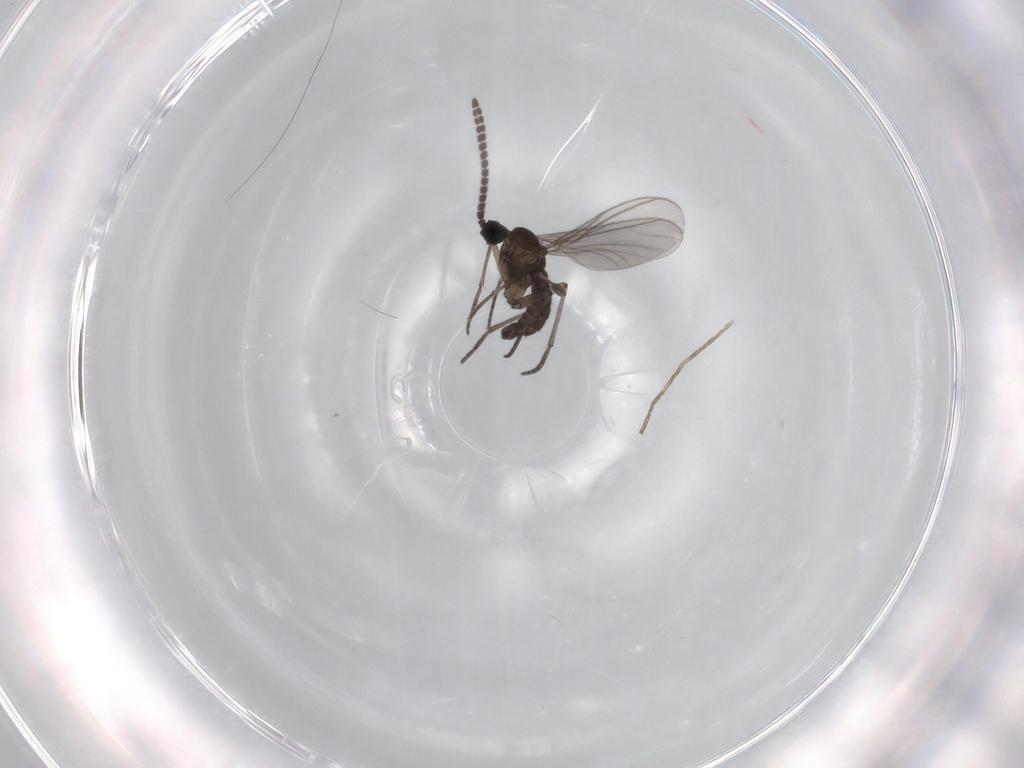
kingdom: Animalia
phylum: Arthropoda
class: Insecta
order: Diptera
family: Sciaridae
